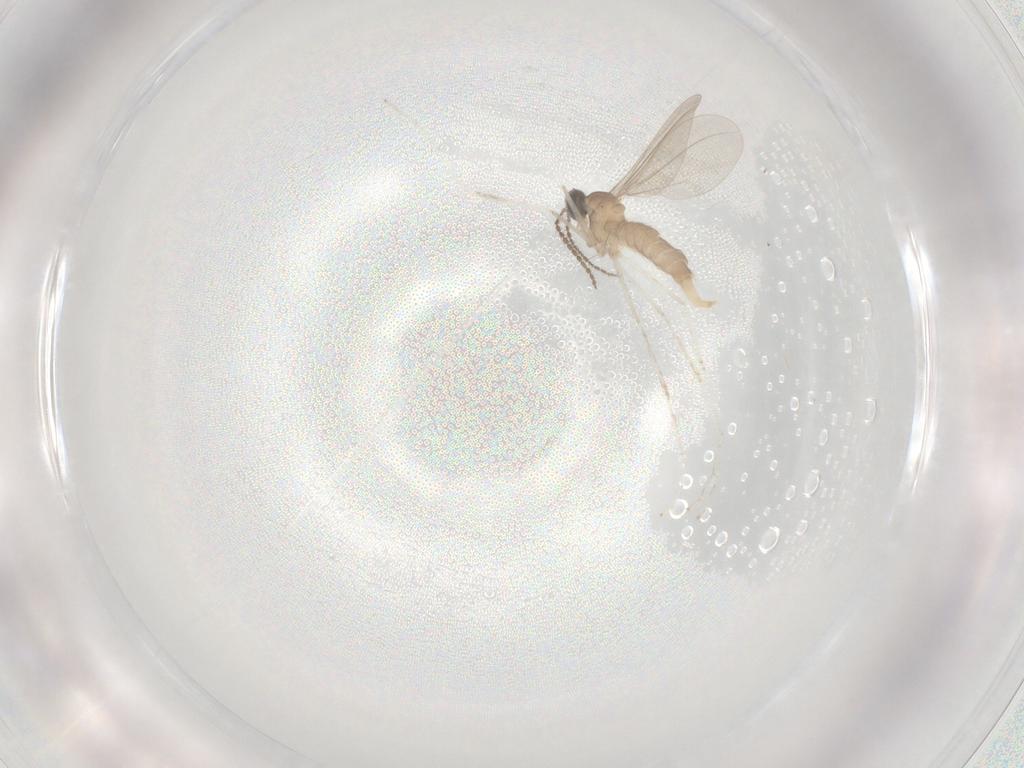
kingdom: Animalia
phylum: Arthropoda
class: Insecta
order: Diptera
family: Cecidomyiidae
